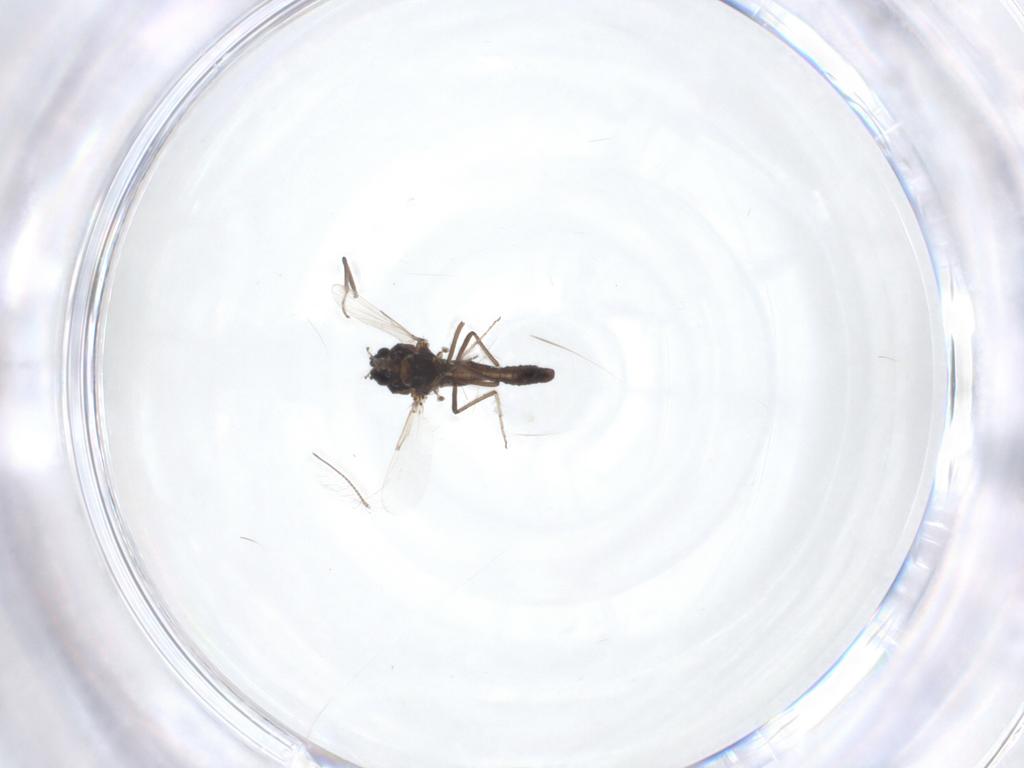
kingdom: Animalia
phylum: Arthropoda
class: Insecta
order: Diptera
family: Ceratopogonidae
